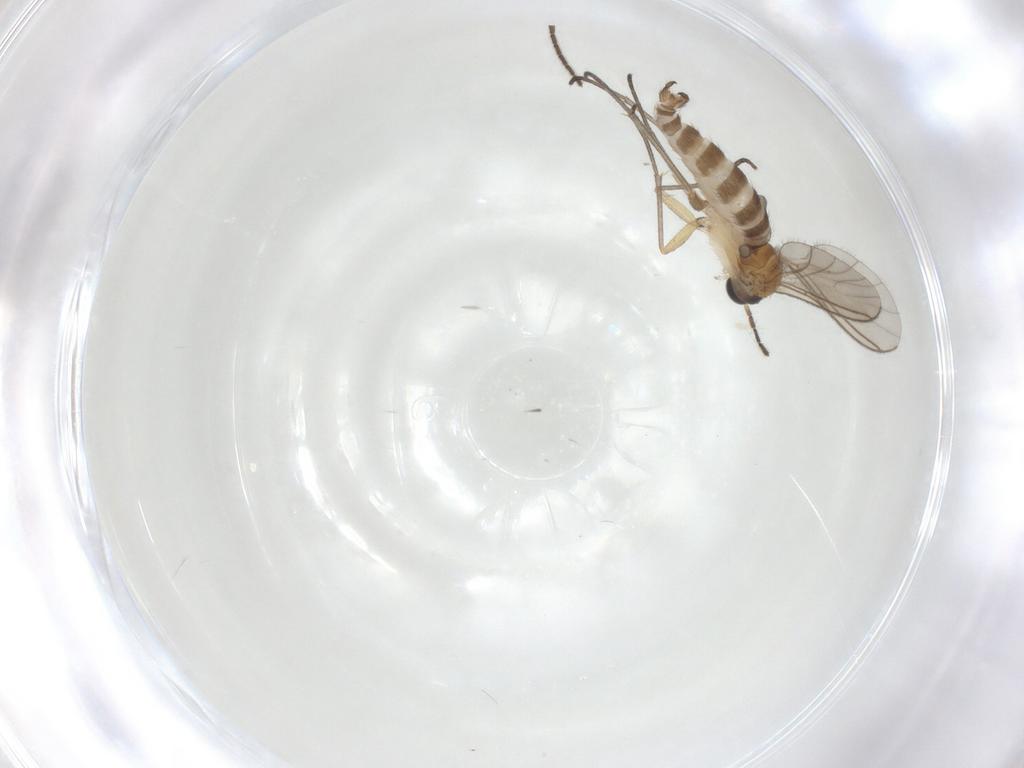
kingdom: Animalia
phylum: Arthropoda
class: Insecta
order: Diptera
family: Sciaridae
